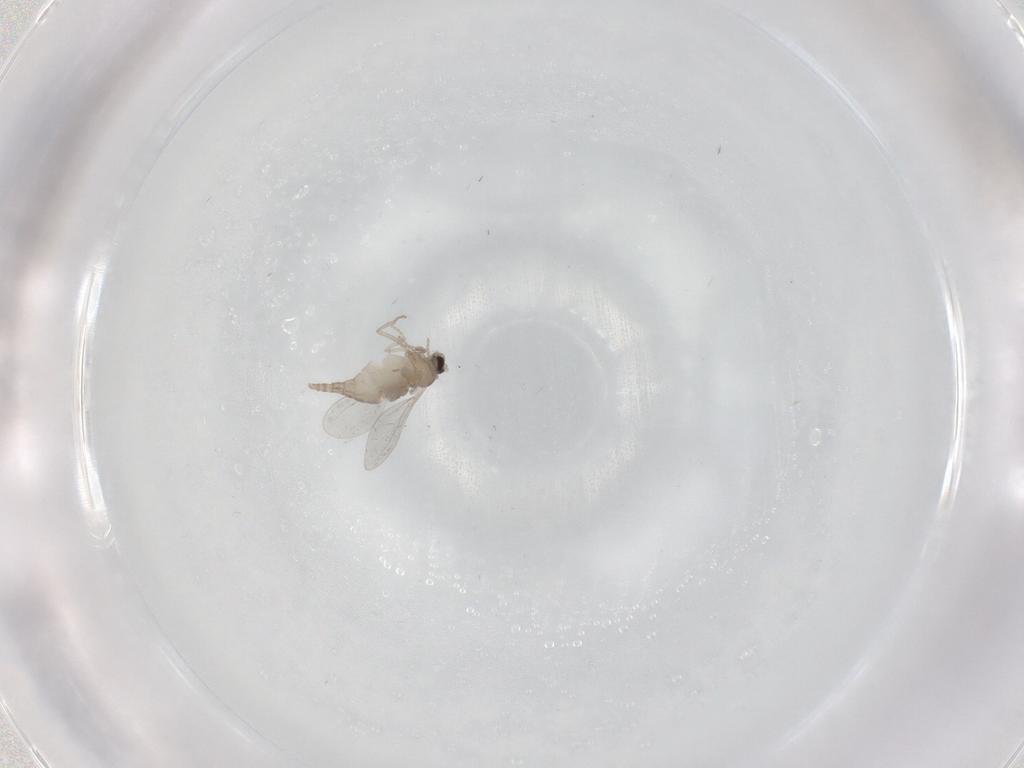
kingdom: Animalia
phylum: Arthropoda
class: Insecta
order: Diptera
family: Cecidomyiidae
